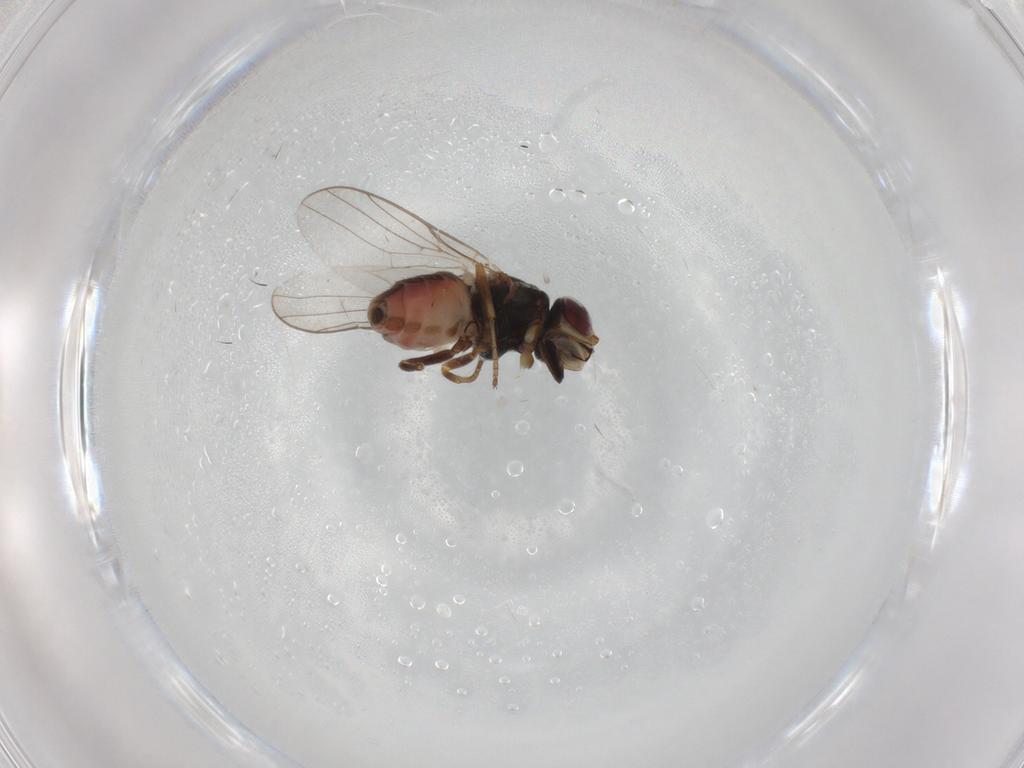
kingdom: Animalia
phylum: Arthropoda
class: Insecta
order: Diptera
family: Chloropidae
